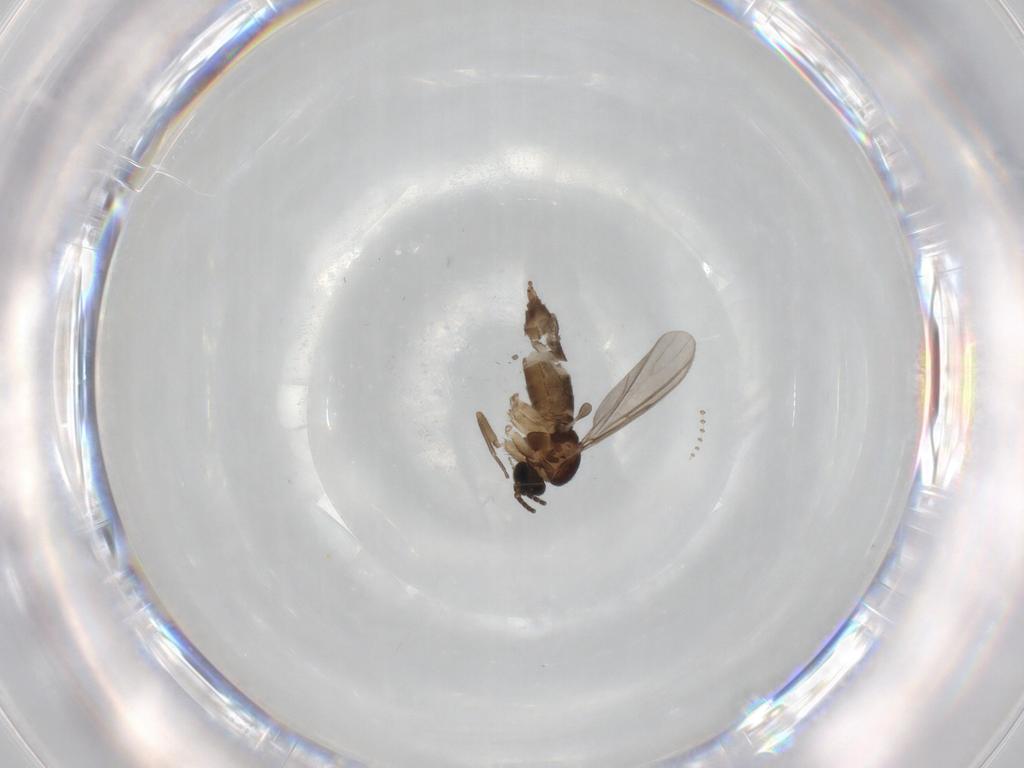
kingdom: Animalia
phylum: Arthropoda
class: Insecta
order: Diptera
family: Sciaridae
